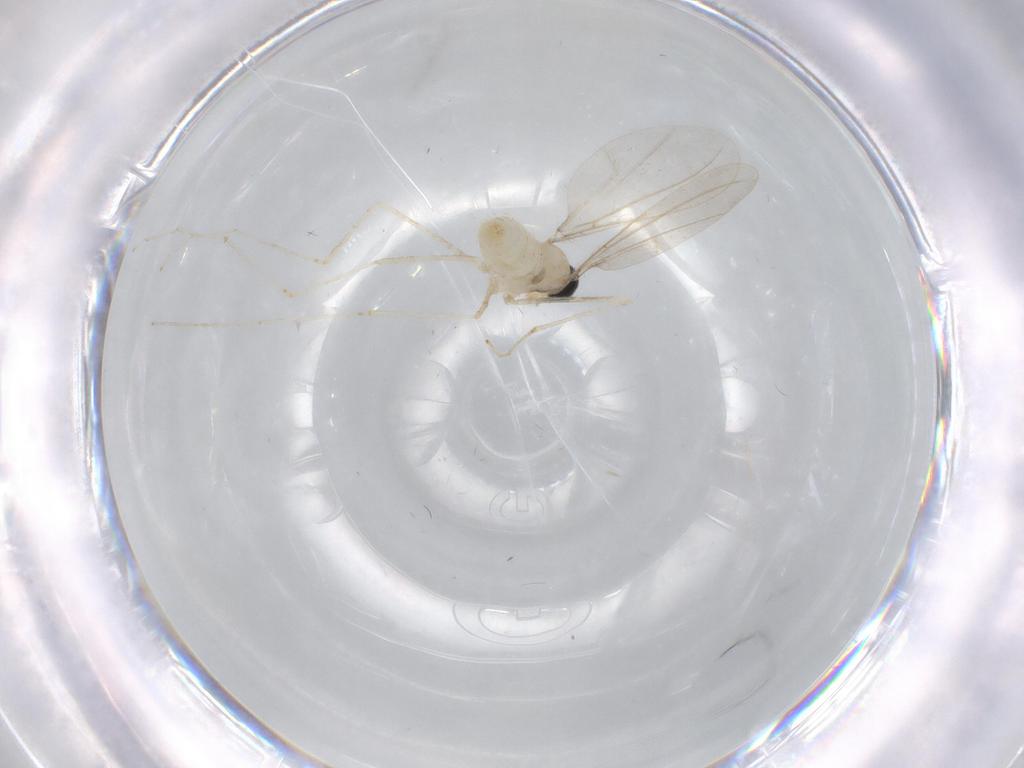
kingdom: Animalia
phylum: Arthropoda
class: Insecta
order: Diptera
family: Cecidomyiidae
